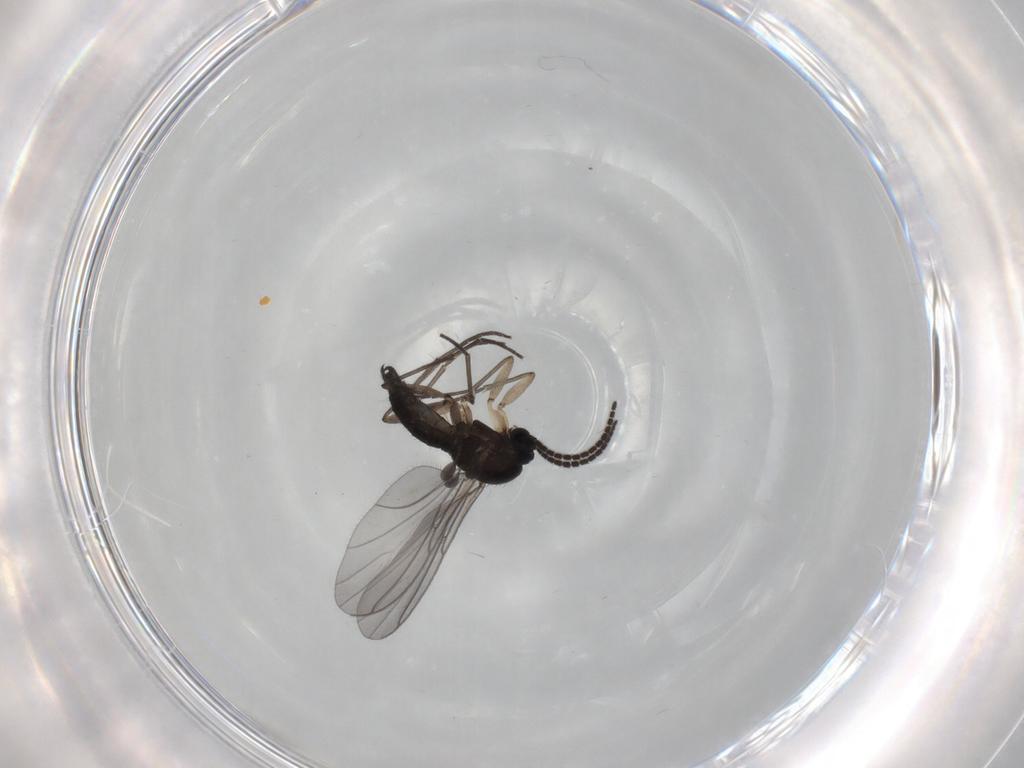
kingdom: Animalia
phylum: Arthropoda
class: Insecta
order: Diptera
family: Sciaridae
